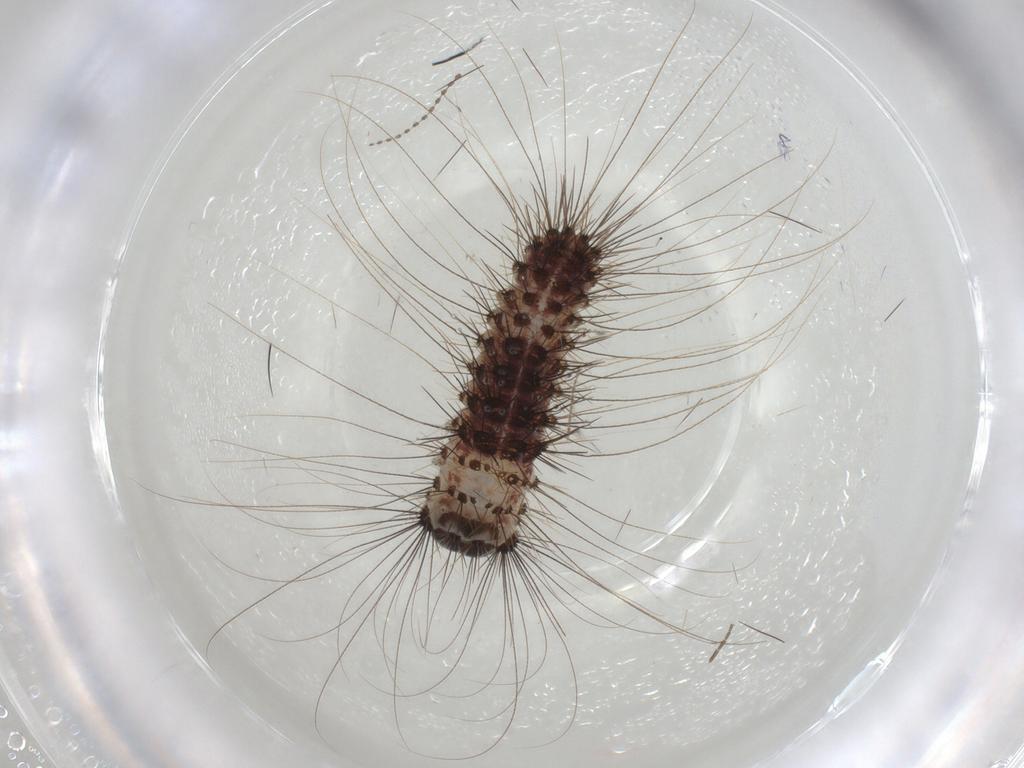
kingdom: Animalia
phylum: Arthropoda
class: Insecta
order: Lepidoptera
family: Erebidae
